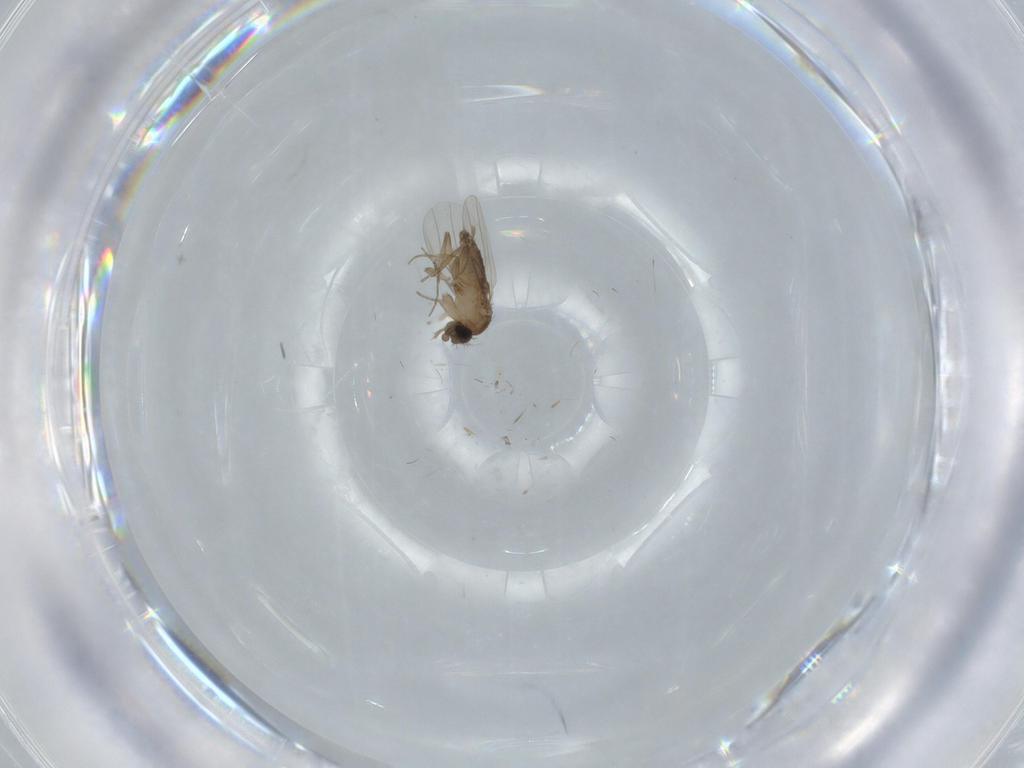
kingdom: Animalia
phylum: Arthropoda
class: Insecta
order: Diptera
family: Phoridae
